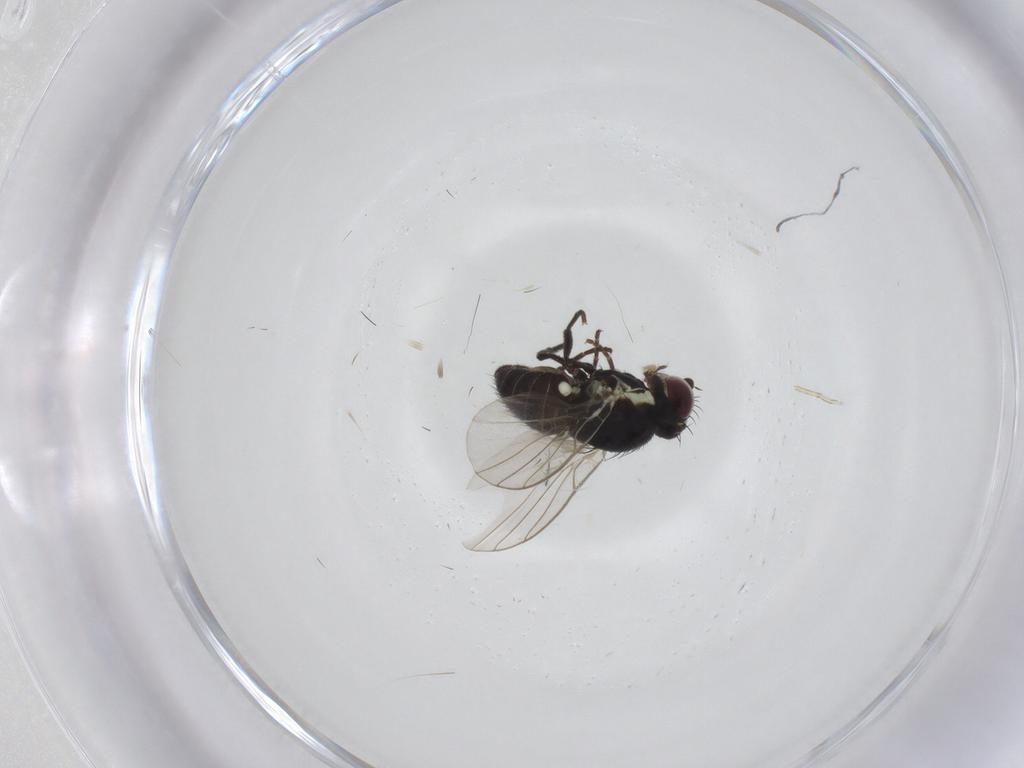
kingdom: Animalia
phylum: Arthropoda
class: Insecta
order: Diptera
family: Agromyzidae
